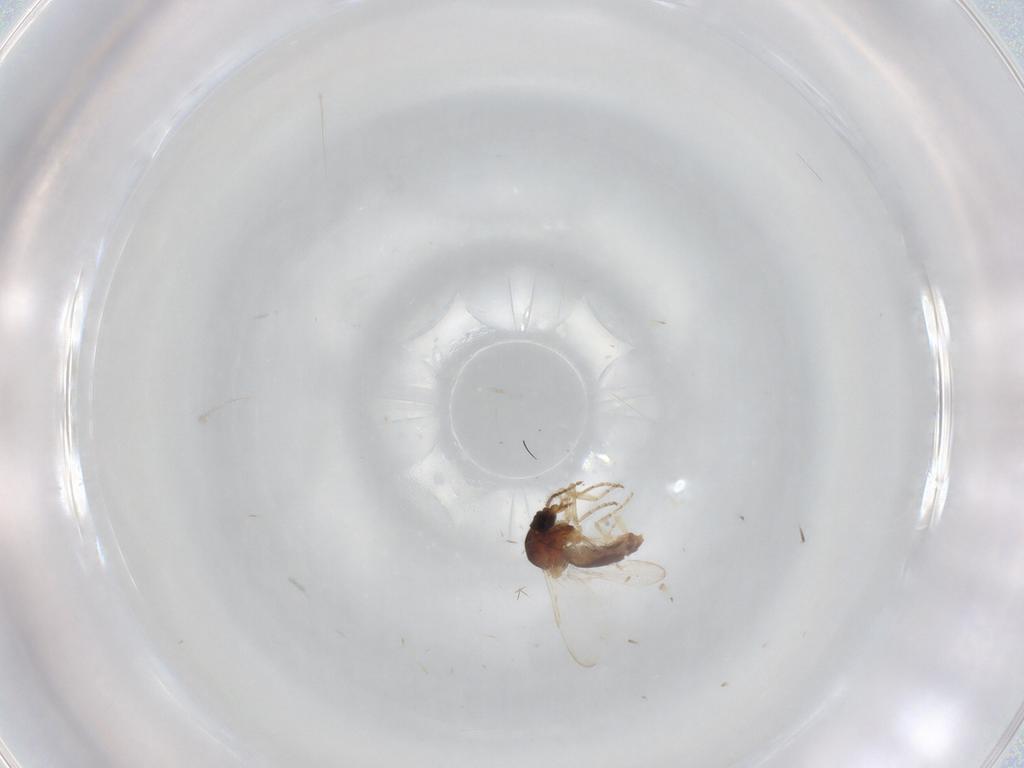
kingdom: Animalia
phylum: Arthropoda
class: Insecta
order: Diptera
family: Ceratopogonidae
